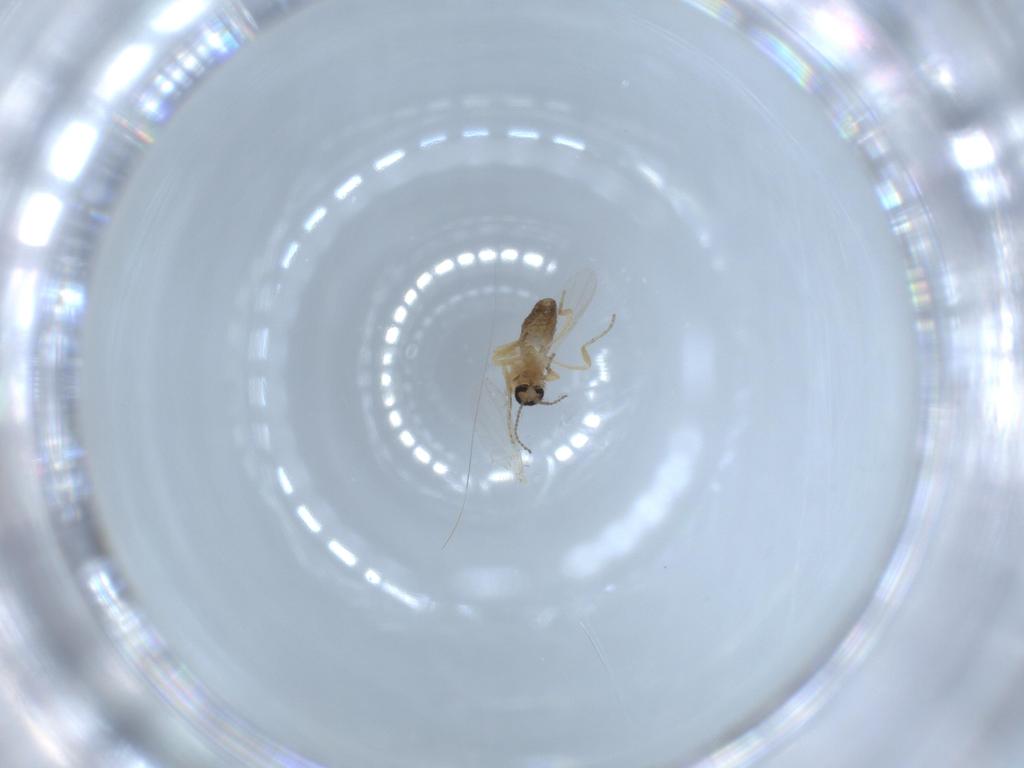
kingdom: Animalia
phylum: Arthropoda
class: Insecta
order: Diptera
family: Ceratopogonidae
